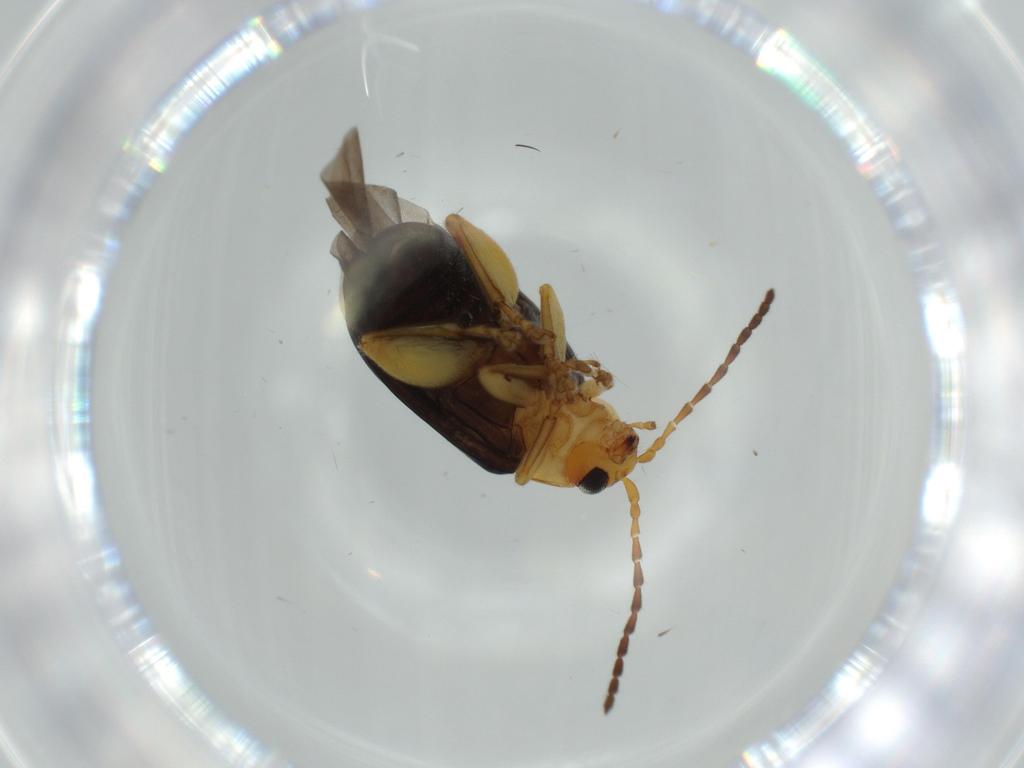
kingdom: Animalia
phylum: Arthropoda
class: Insecta
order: Coleoptera
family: Chrysomelidae
